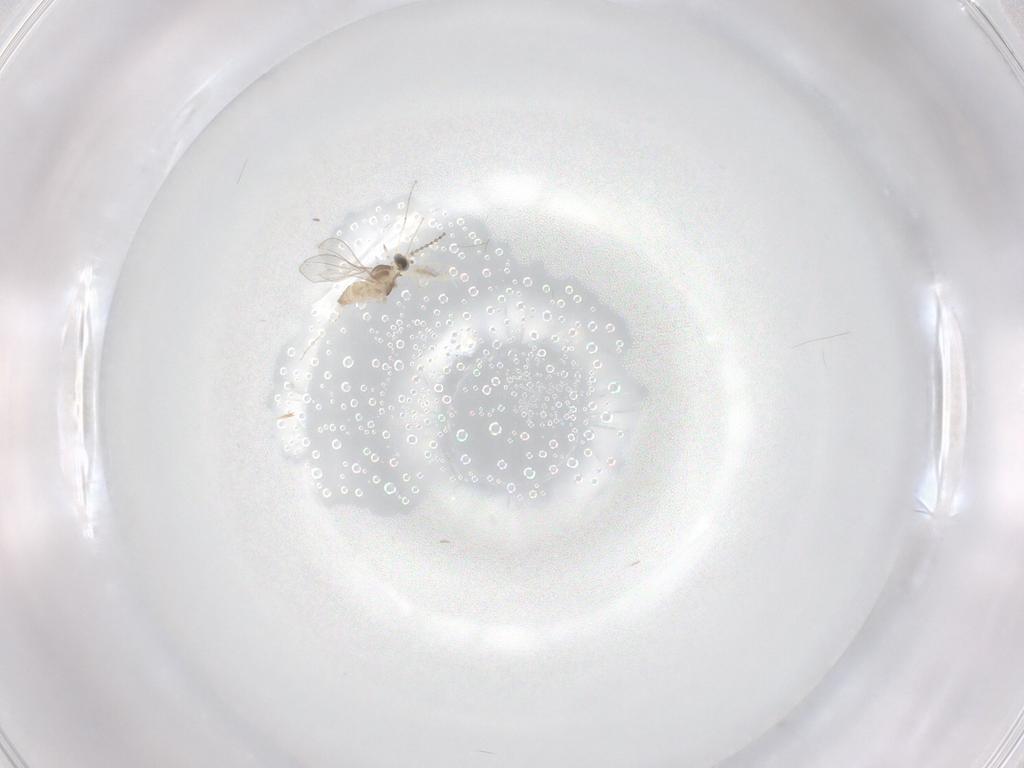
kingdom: Animalia
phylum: Arthropoda
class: Insecta
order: Diptera
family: Cecidomyiidae
